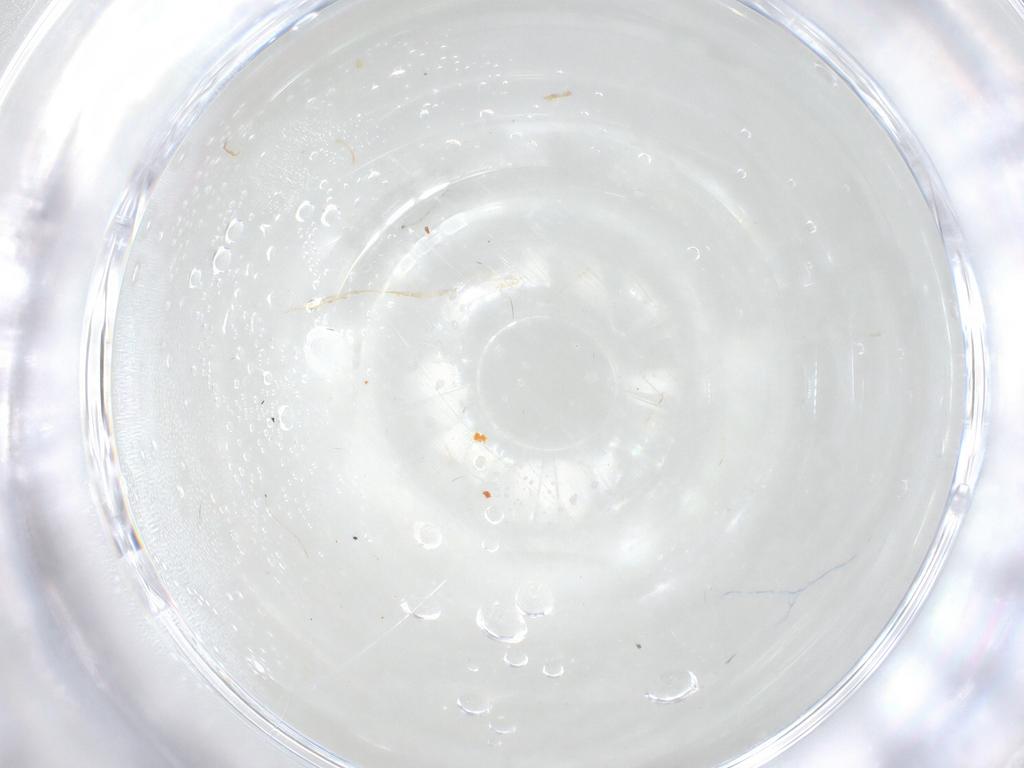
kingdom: Animalia
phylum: Arthropoda
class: Insecta
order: Diptera
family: Cecidomyiidae
